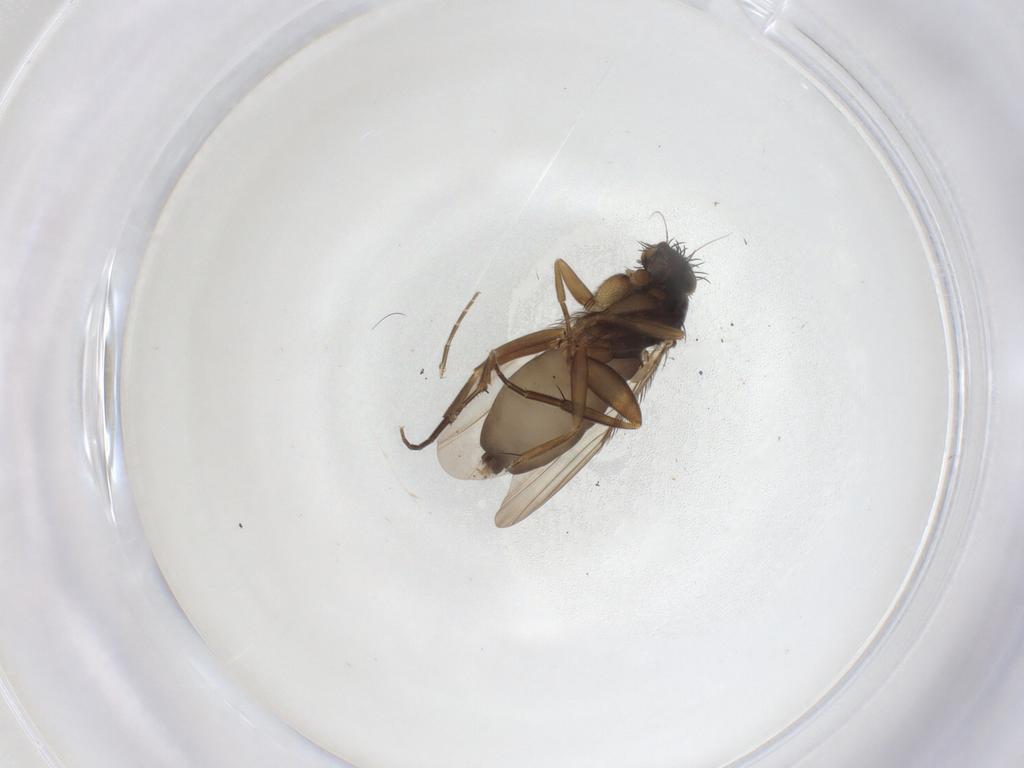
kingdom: Animalia
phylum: Arthropoda
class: Insecta
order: Diptera
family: Phoridae
